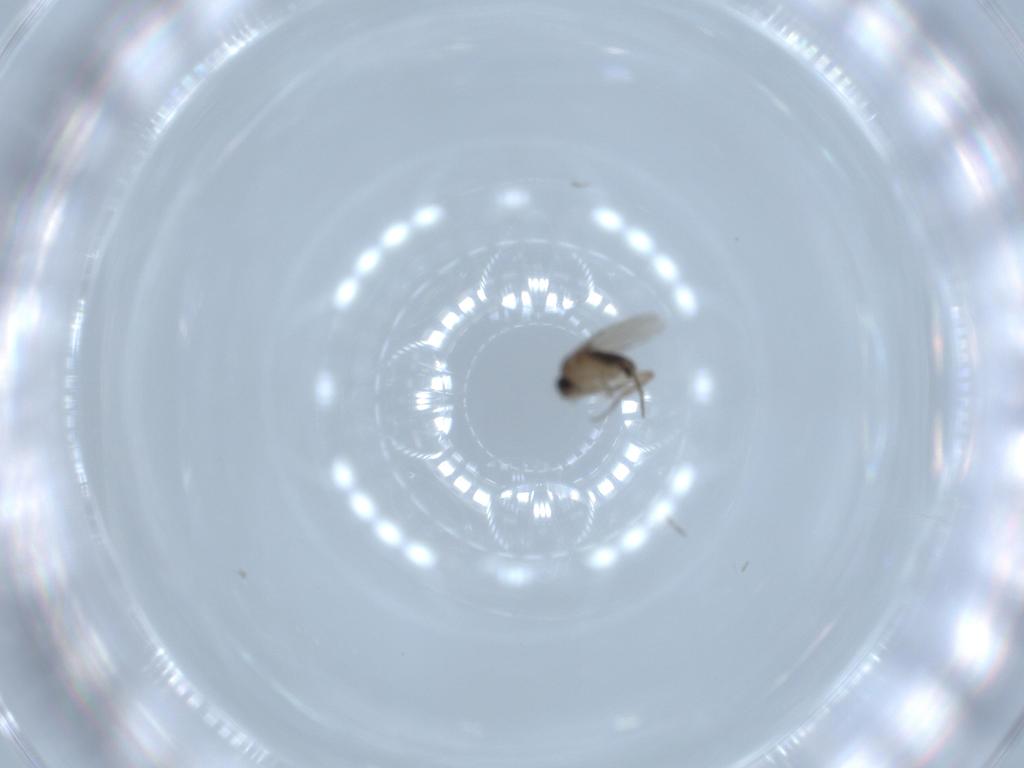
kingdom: Animalia
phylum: Arthropoda
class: Insecta
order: Diptera
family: Phoridae
